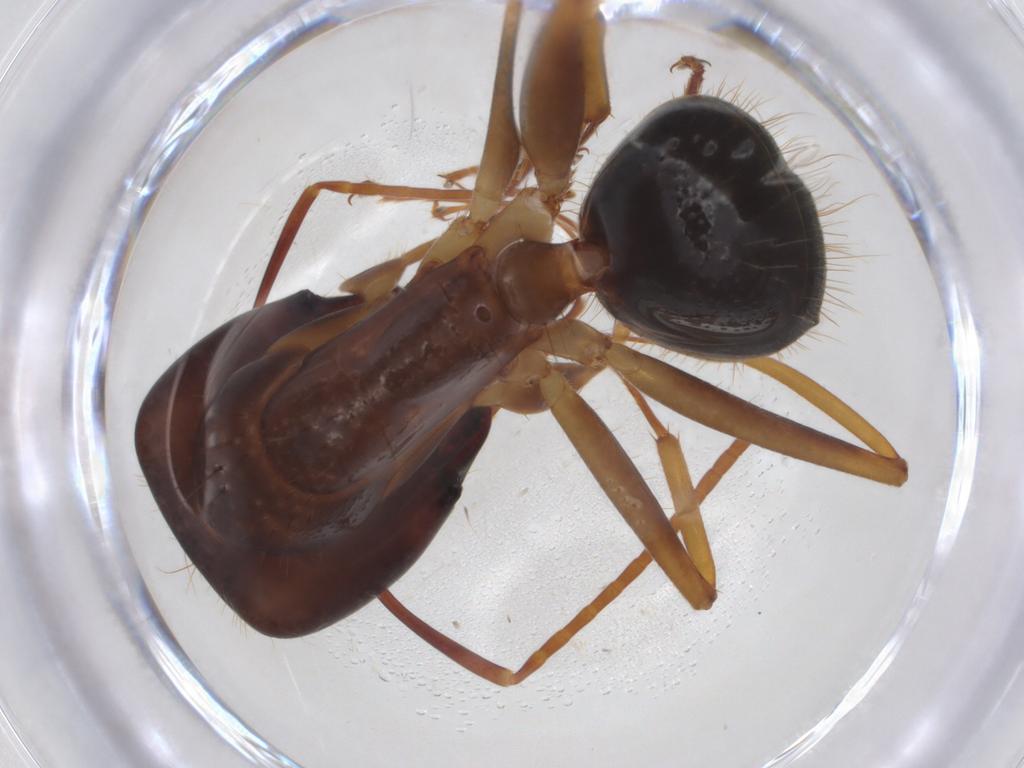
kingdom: Animalia
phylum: Arthropoda
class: Insecta
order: Hymenoptera
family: Formicidae
